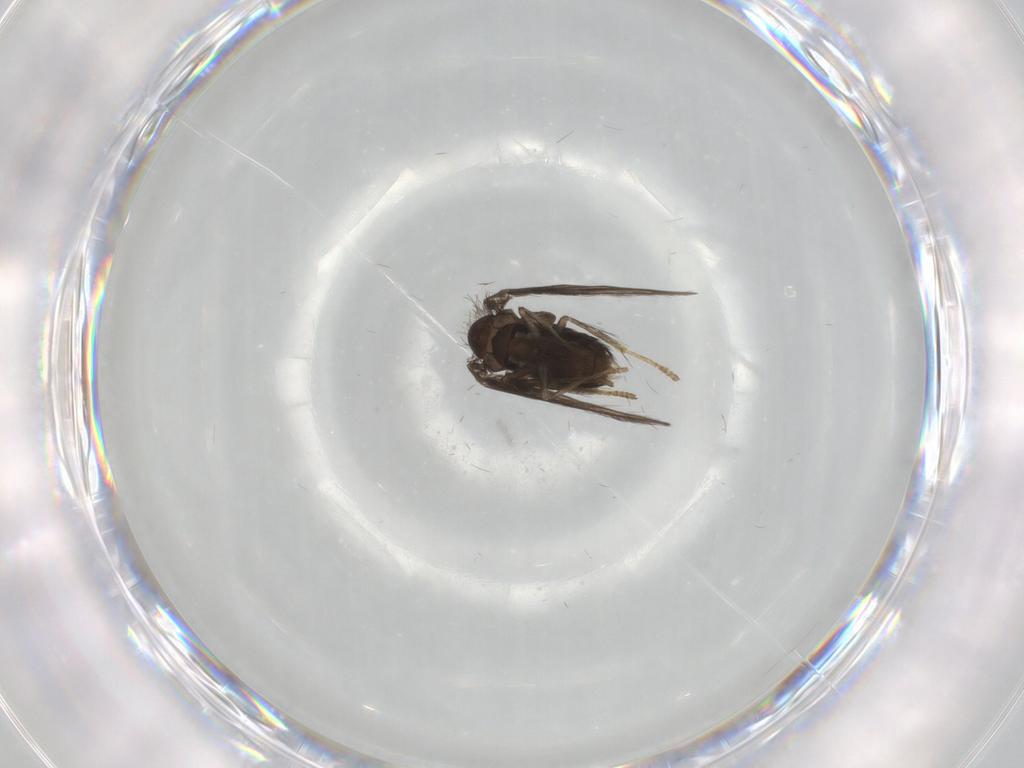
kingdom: Animalia
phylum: Arthropoda
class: Insecta
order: Diptera
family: Psychodidae
